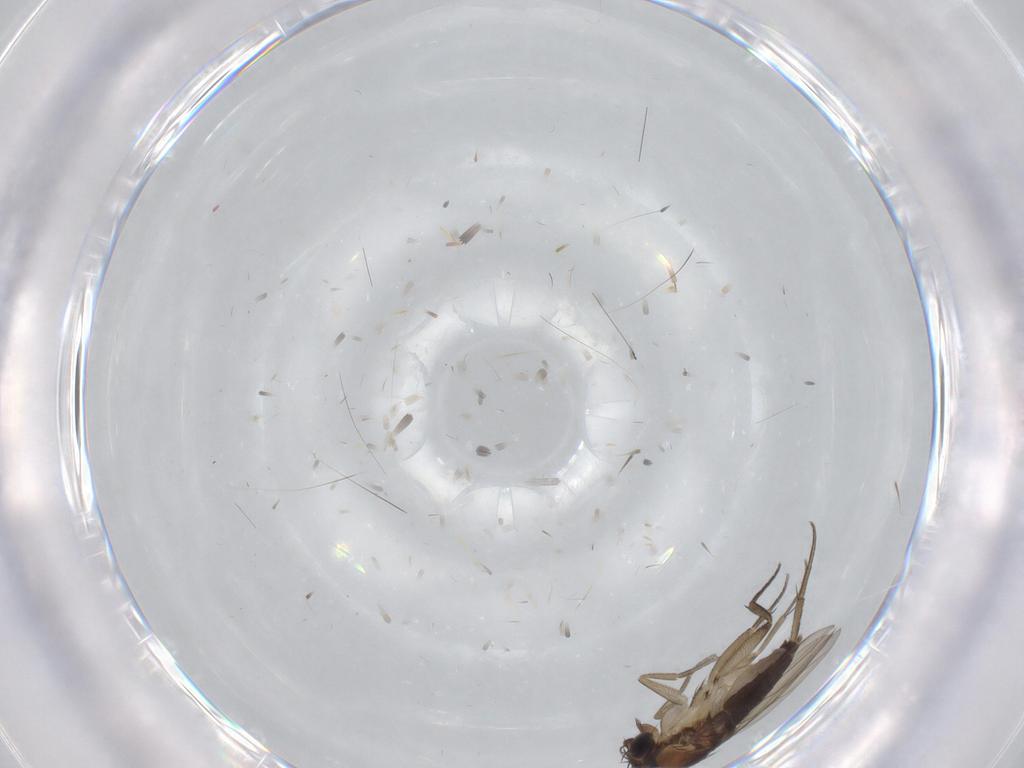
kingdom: Animalia
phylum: Arthropoda
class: Insecta
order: Diptera
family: Phoridae
